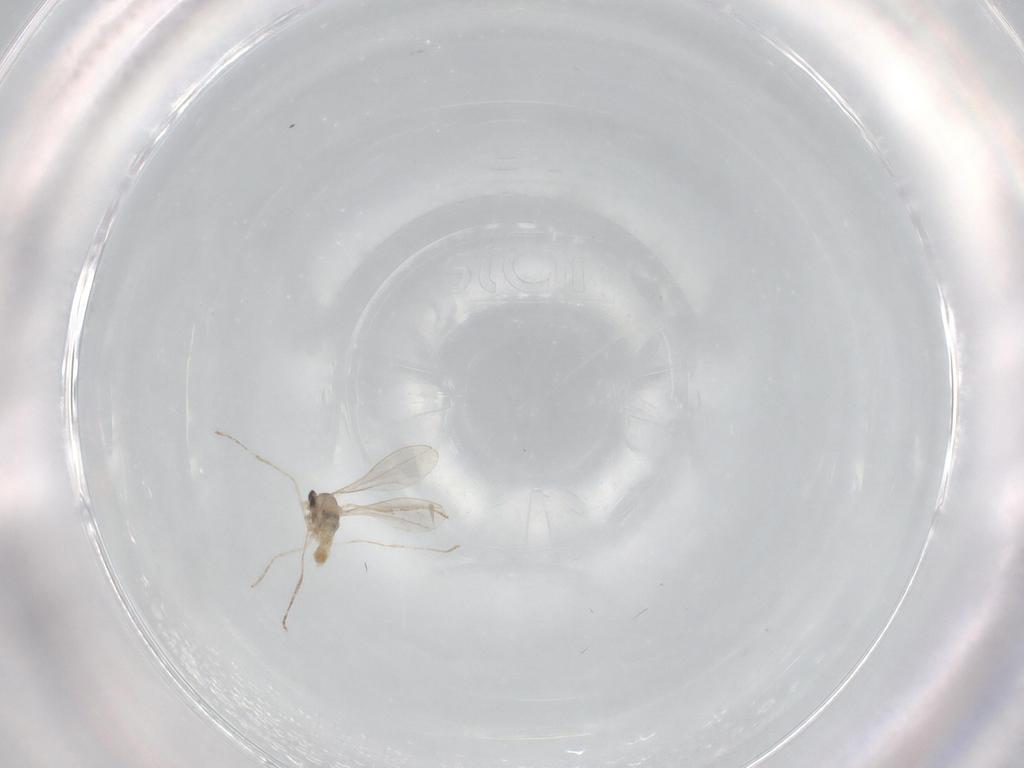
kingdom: Animalia
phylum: Arthropoda
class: Insecta
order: Diptera
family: Cecidomyiidae
